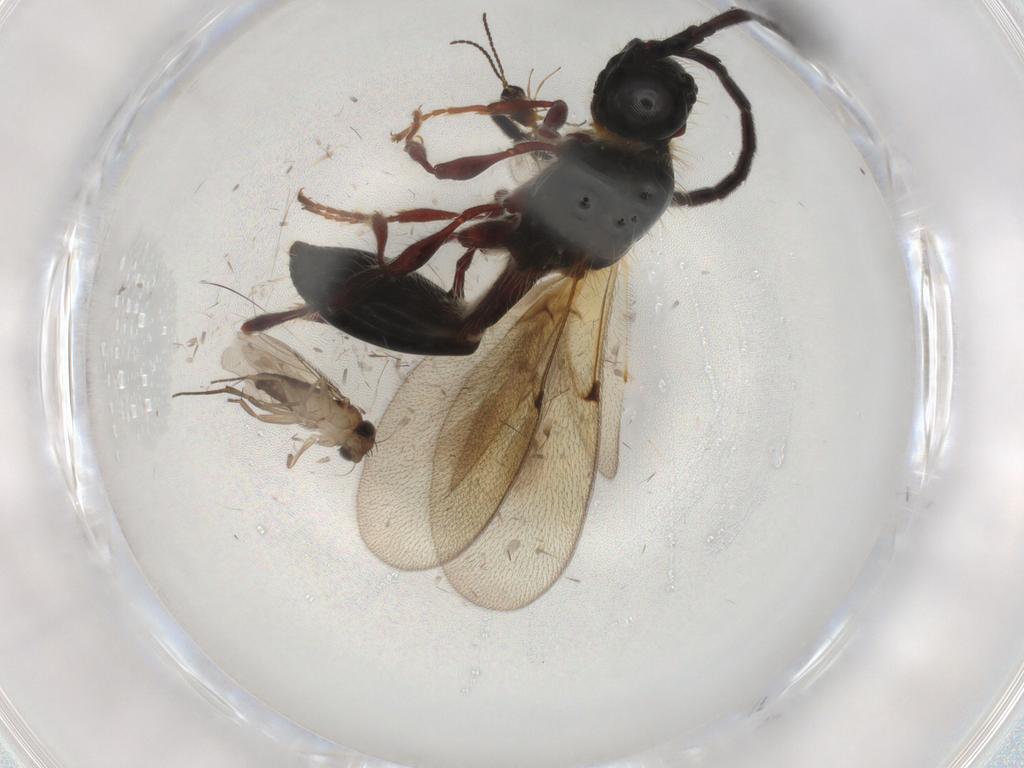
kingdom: Animalia
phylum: Arthropoda
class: Insecta
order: Diptera
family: Phoridae
